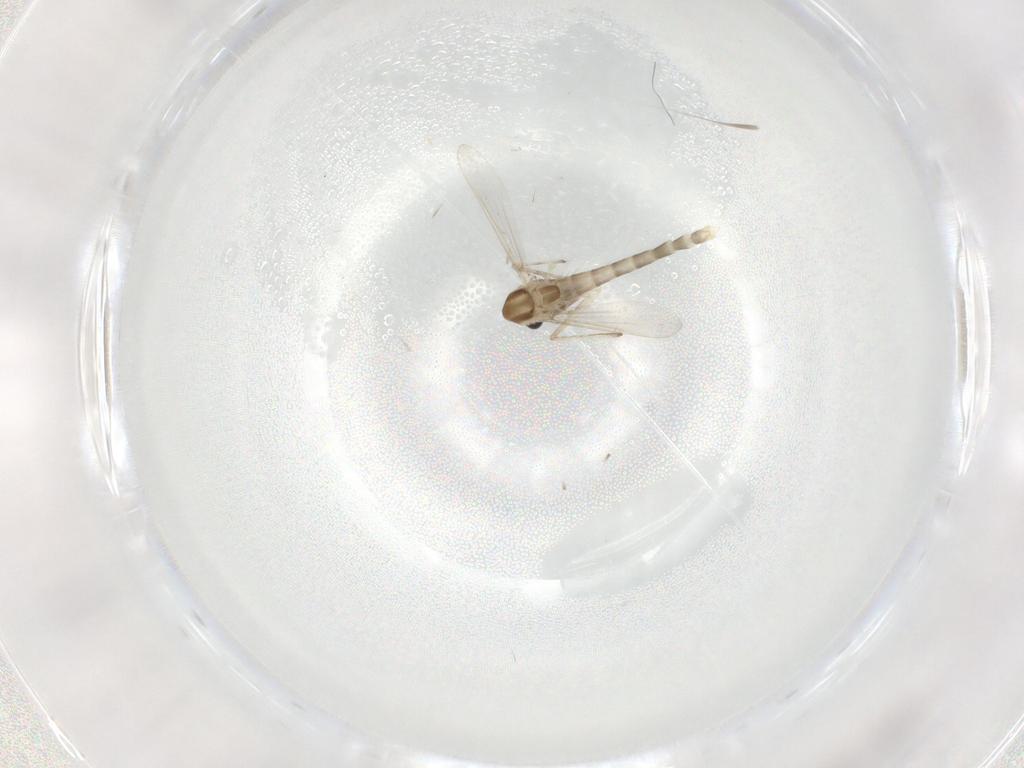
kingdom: Animalia
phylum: Arthropoda
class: Insecta
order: Diptera
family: Chironomidae
